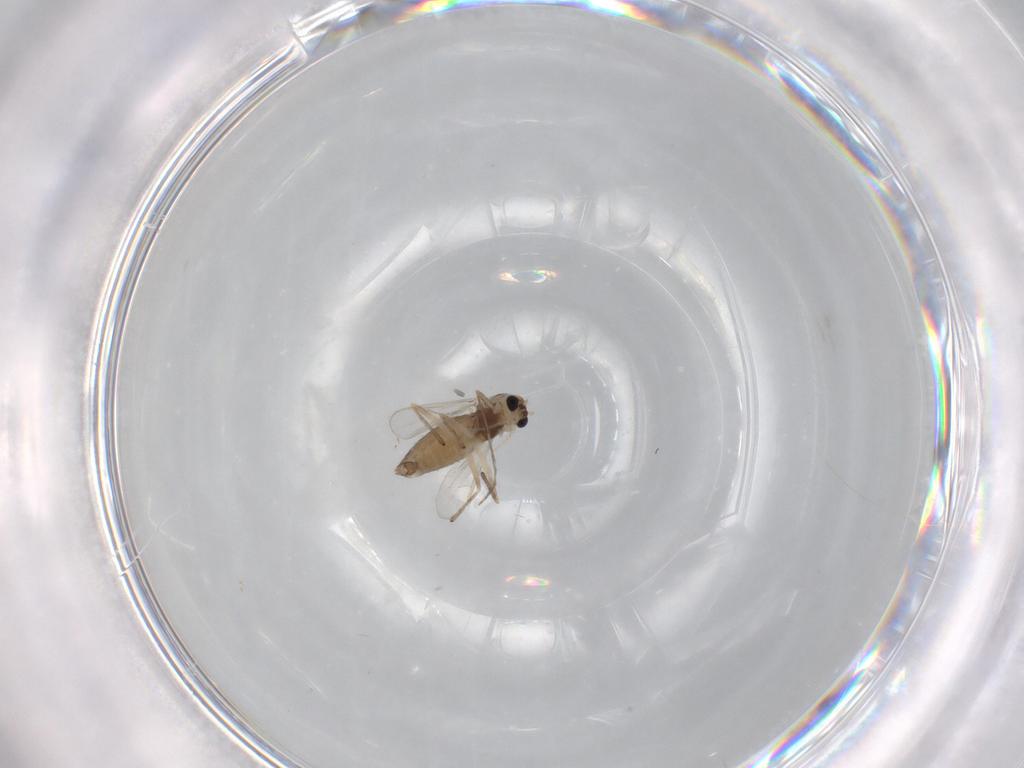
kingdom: Animalia
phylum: Arthropoda
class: Insecta
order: Diptera
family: Chironomidae
